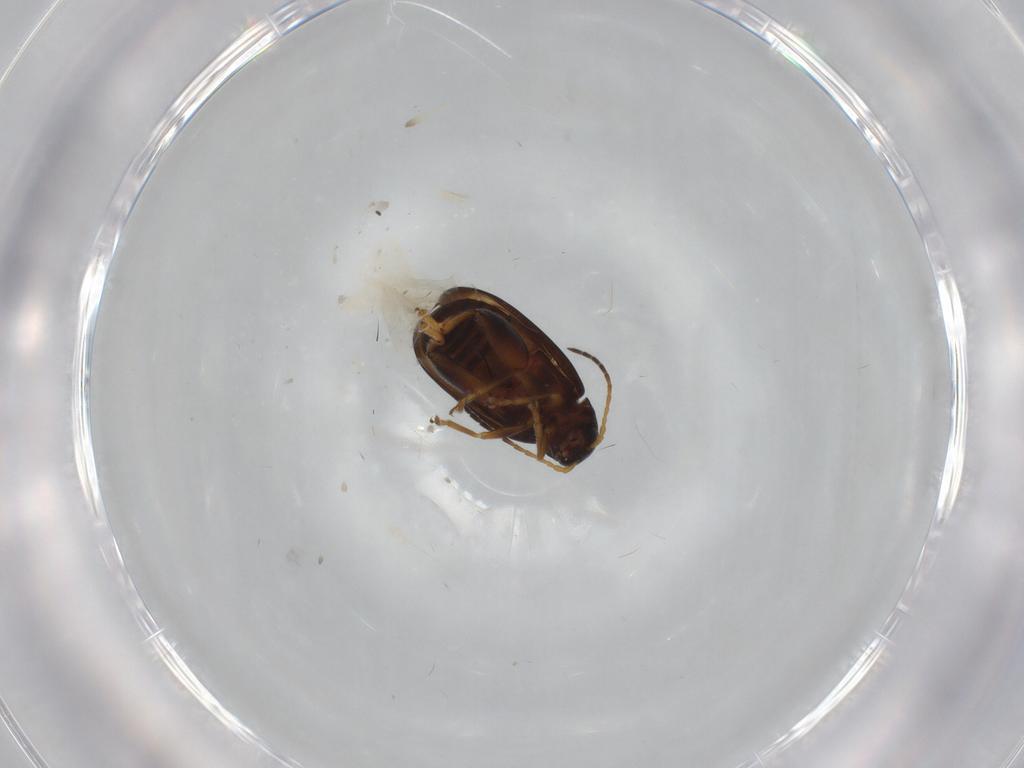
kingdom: Animalia
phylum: Arthropoda
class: Insecta
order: Coleoptera
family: Chrysomelidae
